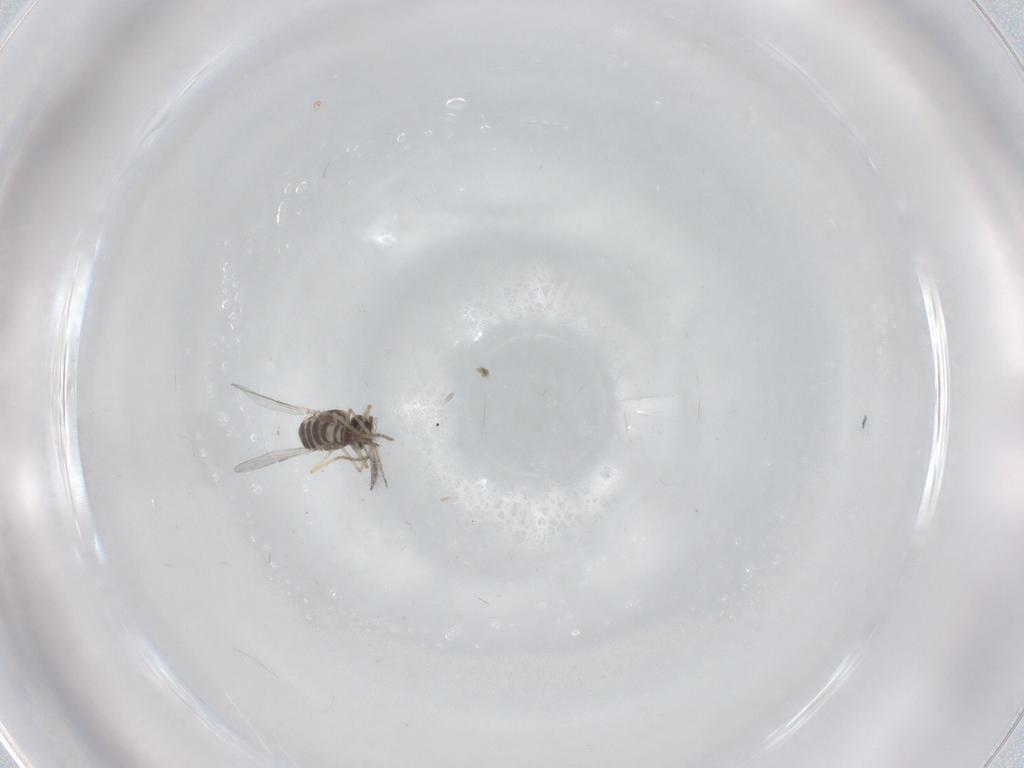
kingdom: Animalia
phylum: Arthropoda
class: Insecta
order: Diptera
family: Ceratopogonidae
